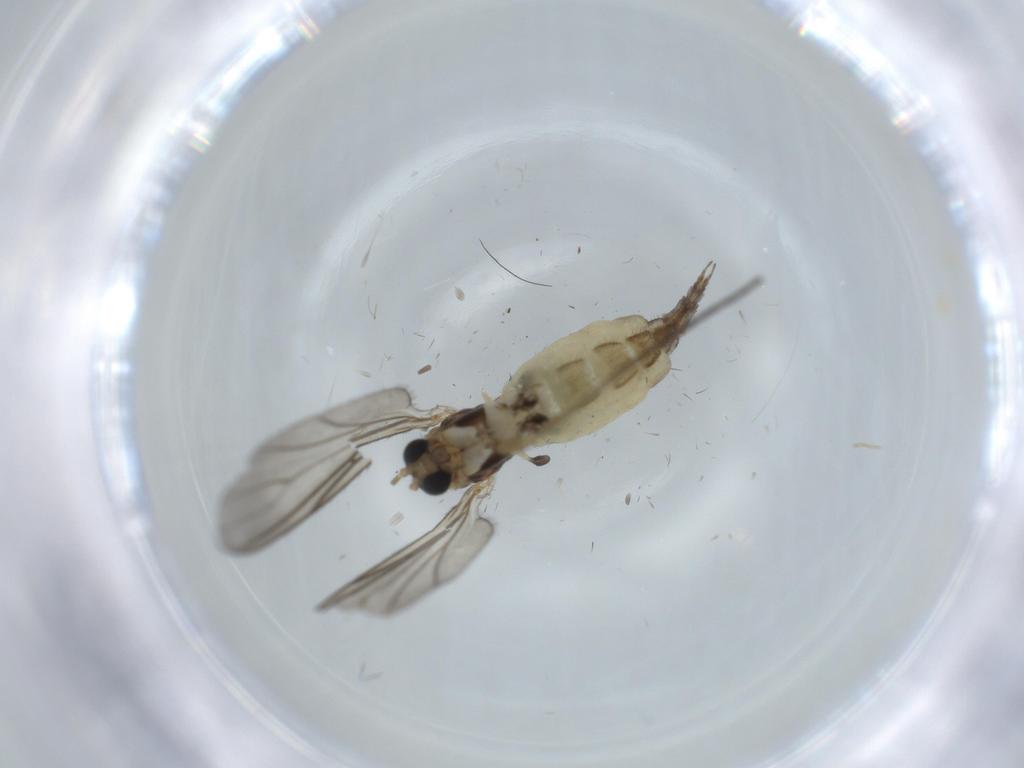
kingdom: Animalia
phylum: Arthropoda
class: Insecta
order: Diptera
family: Sciaridae
